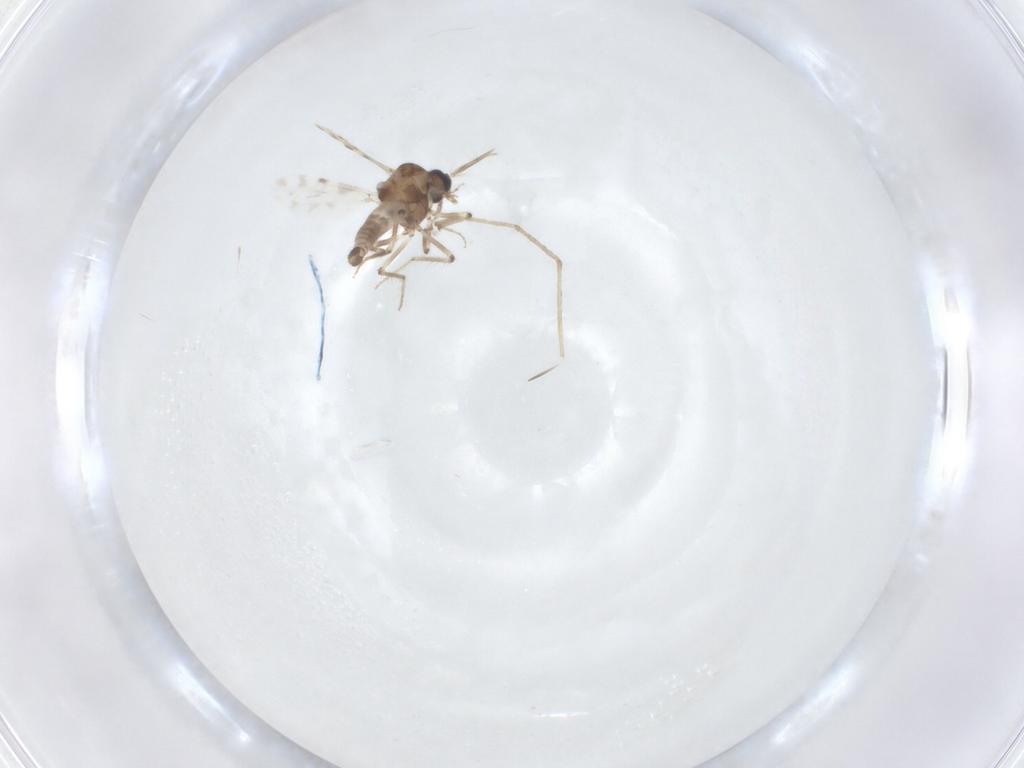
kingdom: Animalia
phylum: Arthropoda
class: Insecta
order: Diptera
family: Cecidomyiidae
